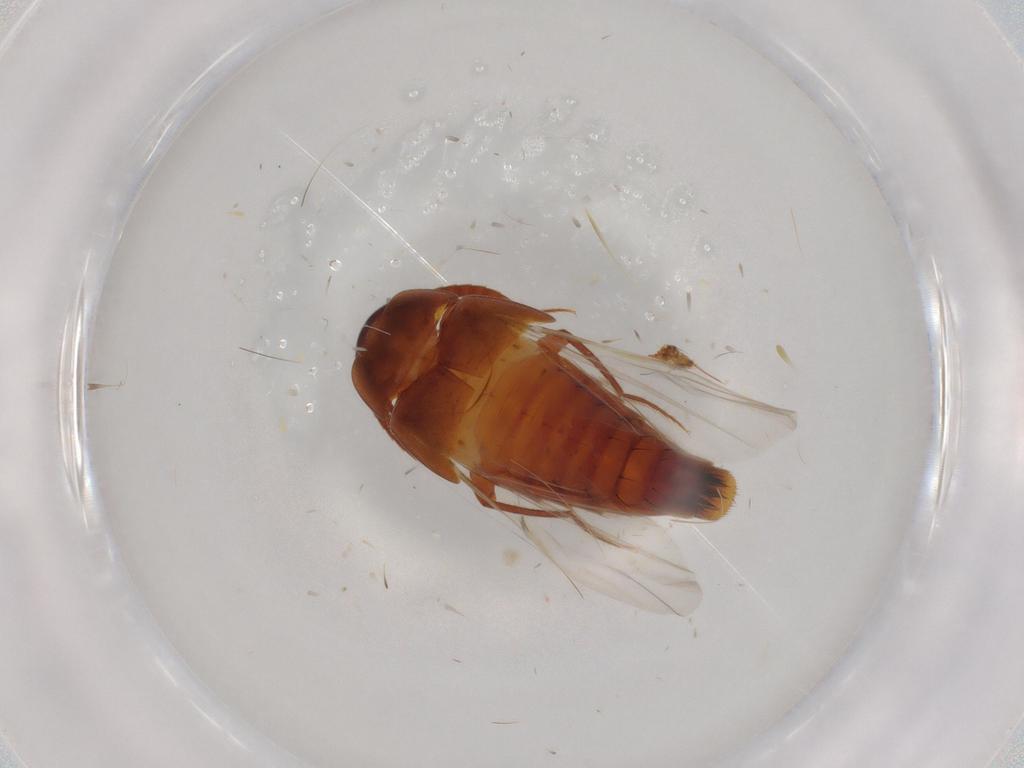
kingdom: Animalia
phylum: Arthropoda
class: Insecta
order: Coleoptera
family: Staphylinidae
